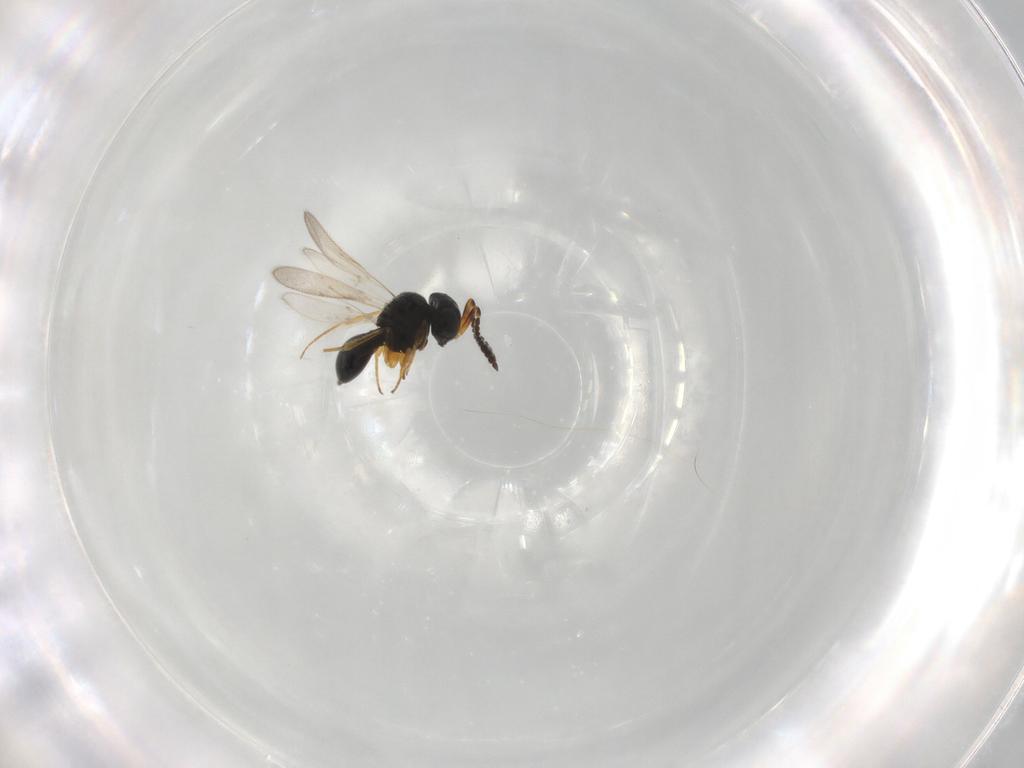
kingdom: Animalia
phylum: Arthropoda
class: Insecta
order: Hymenoptera
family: Scelionidae
